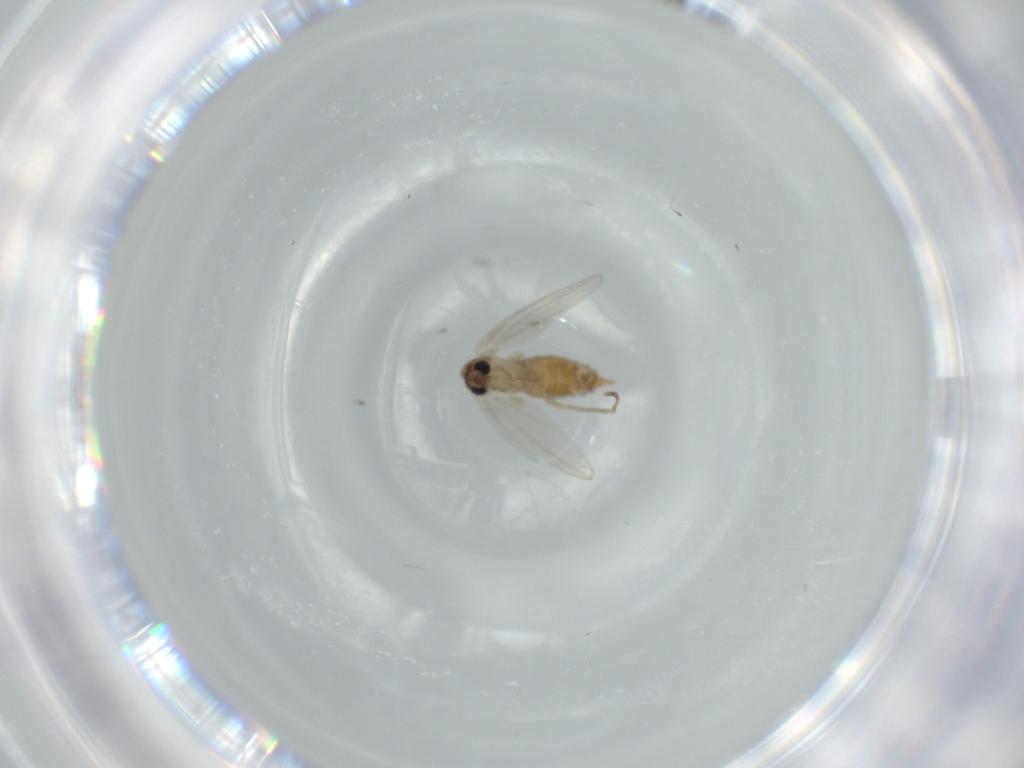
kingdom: Animalia
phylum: Arthropoda
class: Insecta
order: Diptera
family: Psychodidae
